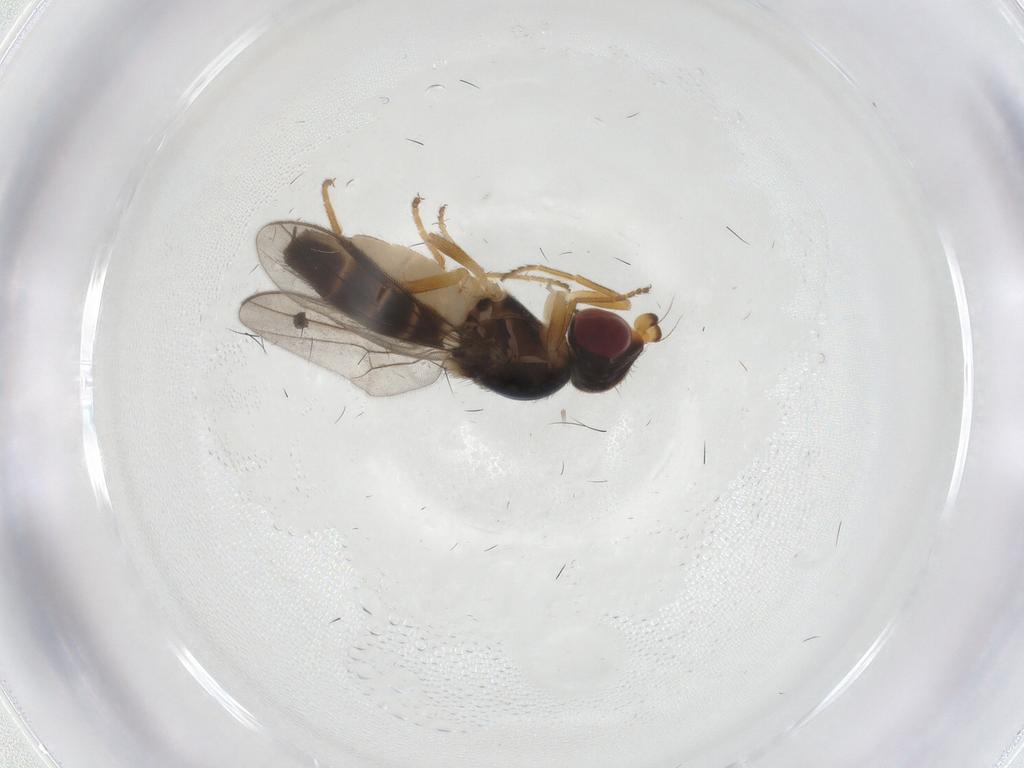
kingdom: Animalia
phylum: Arthropoda
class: Insecta
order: Diptera
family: Chloropidae
